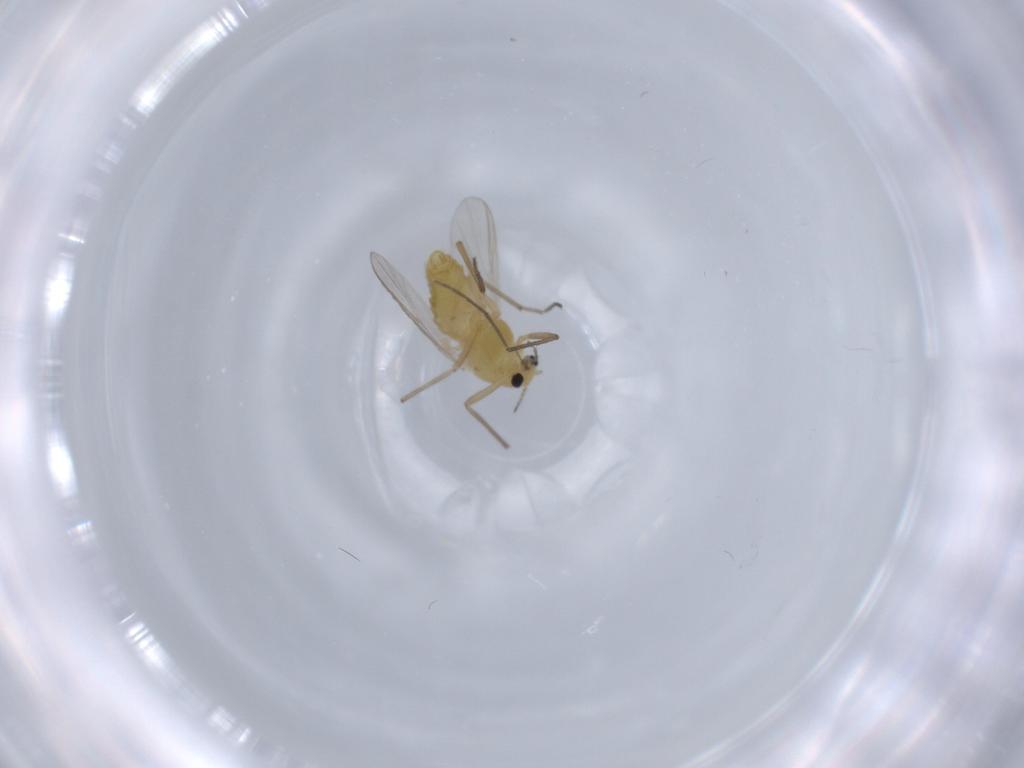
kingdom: Animalia
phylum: Arthropoda
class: Insecta
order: Diptera
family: Chironomidae
